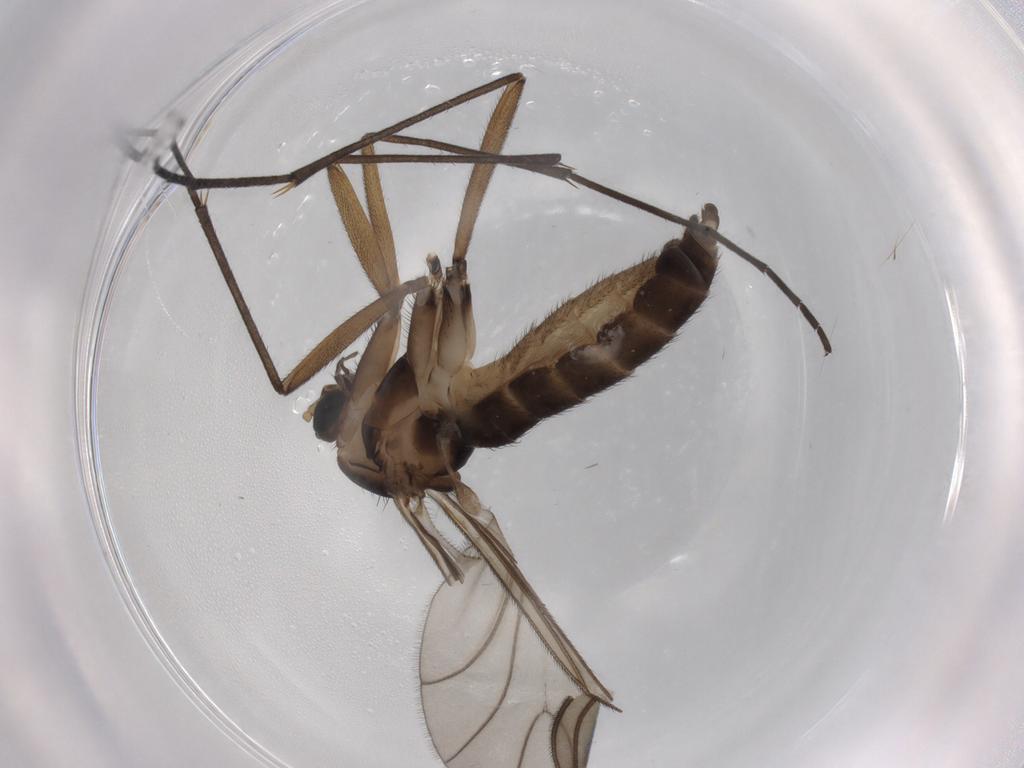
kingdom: Animalia
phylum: Arthropoda
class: Insecta
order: Diptera
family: Sciaridae
